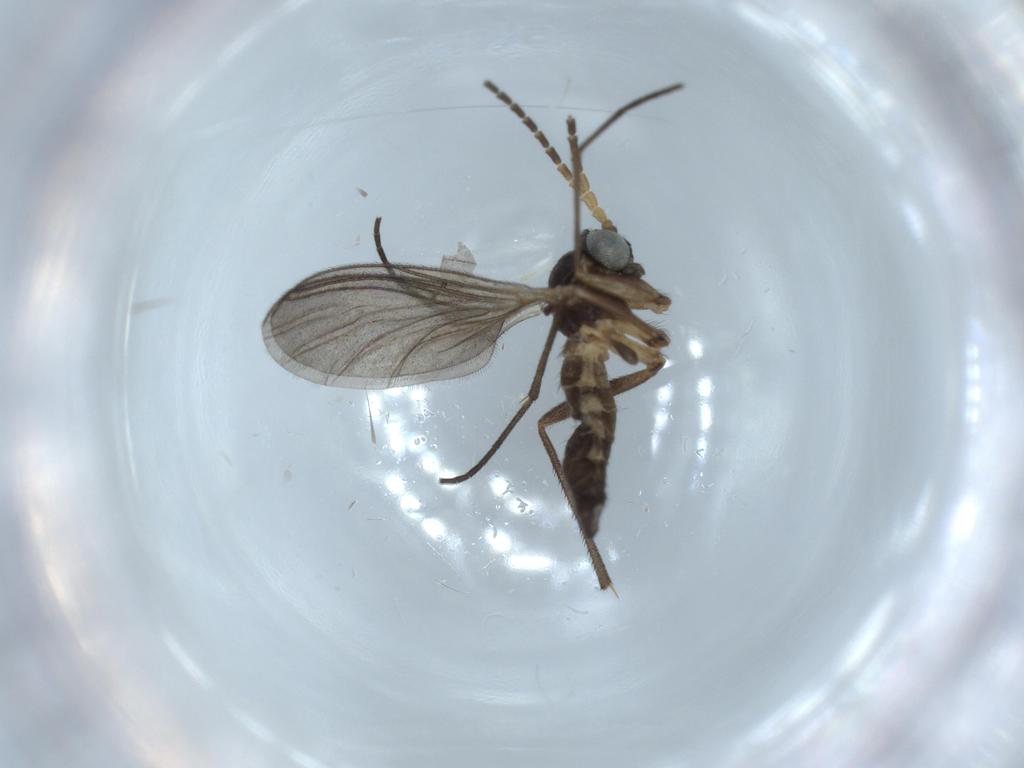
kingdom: Animalia
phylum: Arthropoda
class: Insecta
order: Diptera
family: Sciaridae
